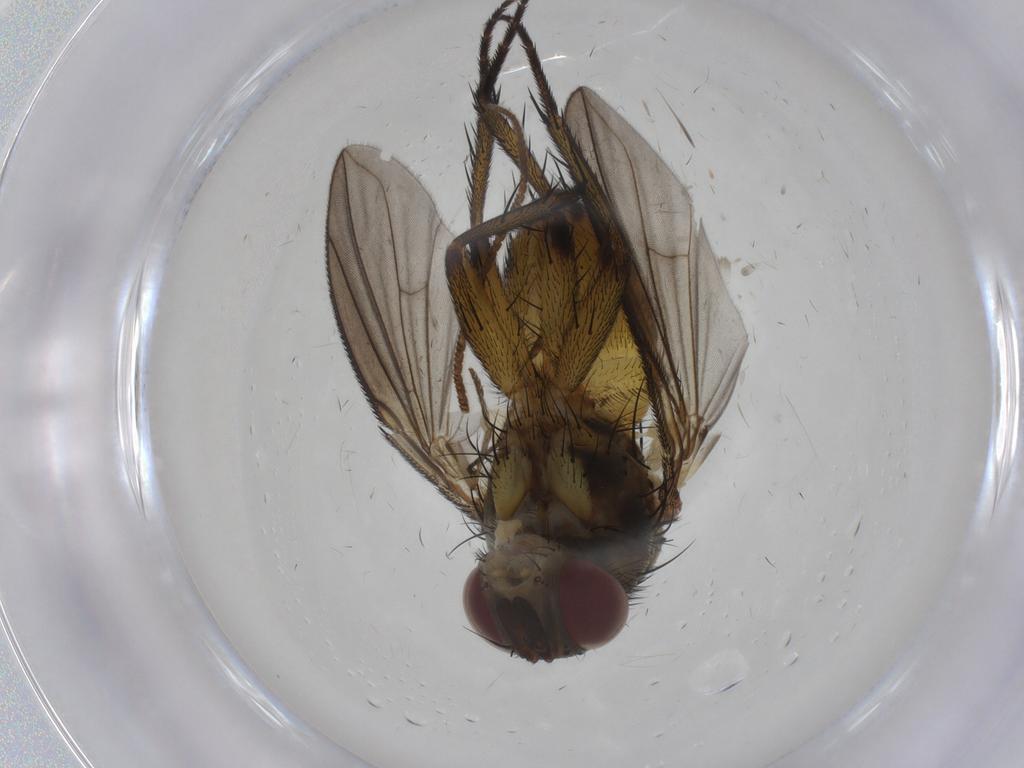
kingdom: Animalia
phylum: Arthropoda
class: Insecta
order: Diptera
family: Tachinidae
